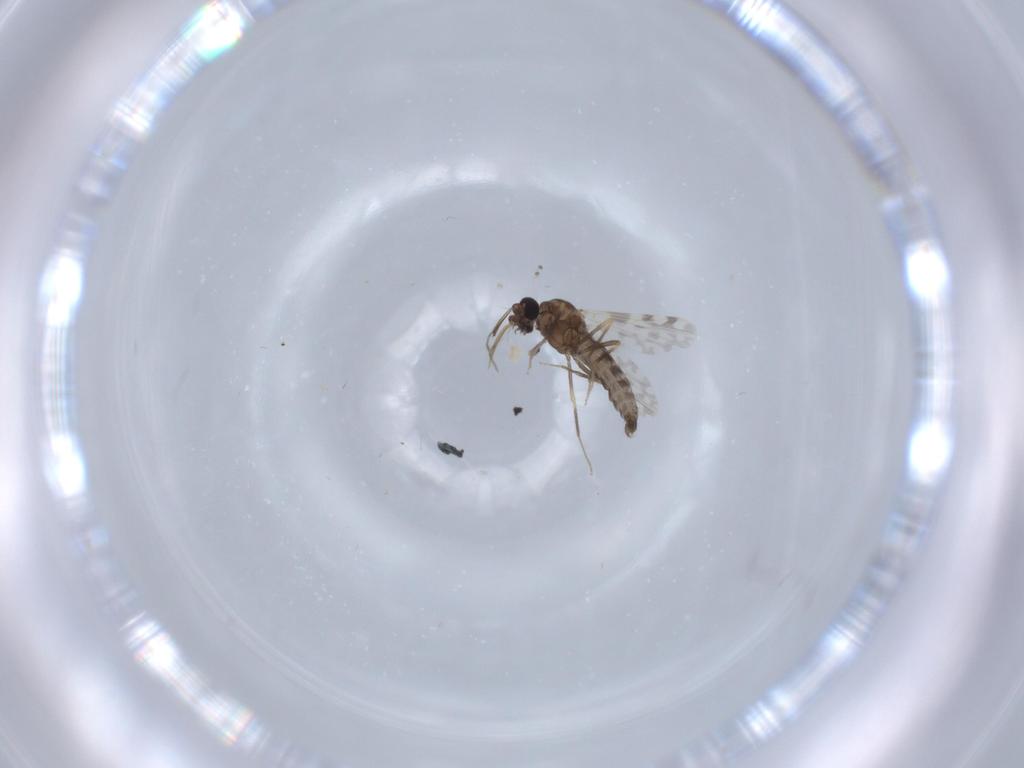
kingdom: Animalia
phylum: Arthropoda
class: Insecta
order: Diptera
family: Ceratopogonidae
